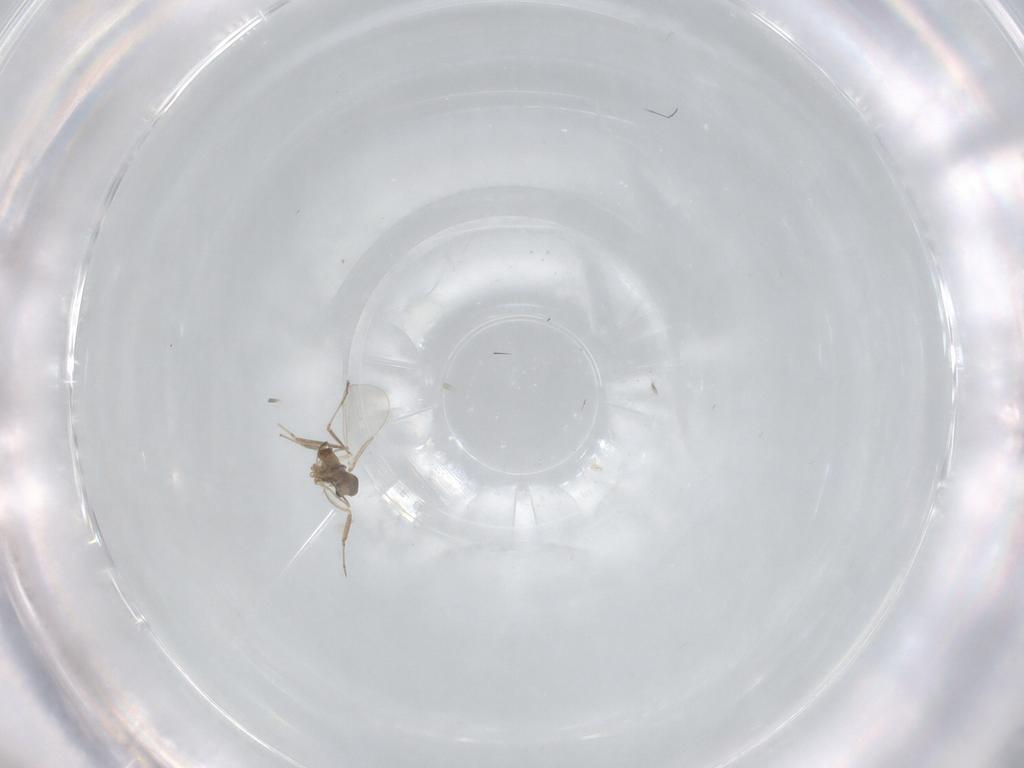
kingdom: Animalia
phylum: Arthropoda
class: Insecta
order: Diptera
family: Cecidomyiidae
